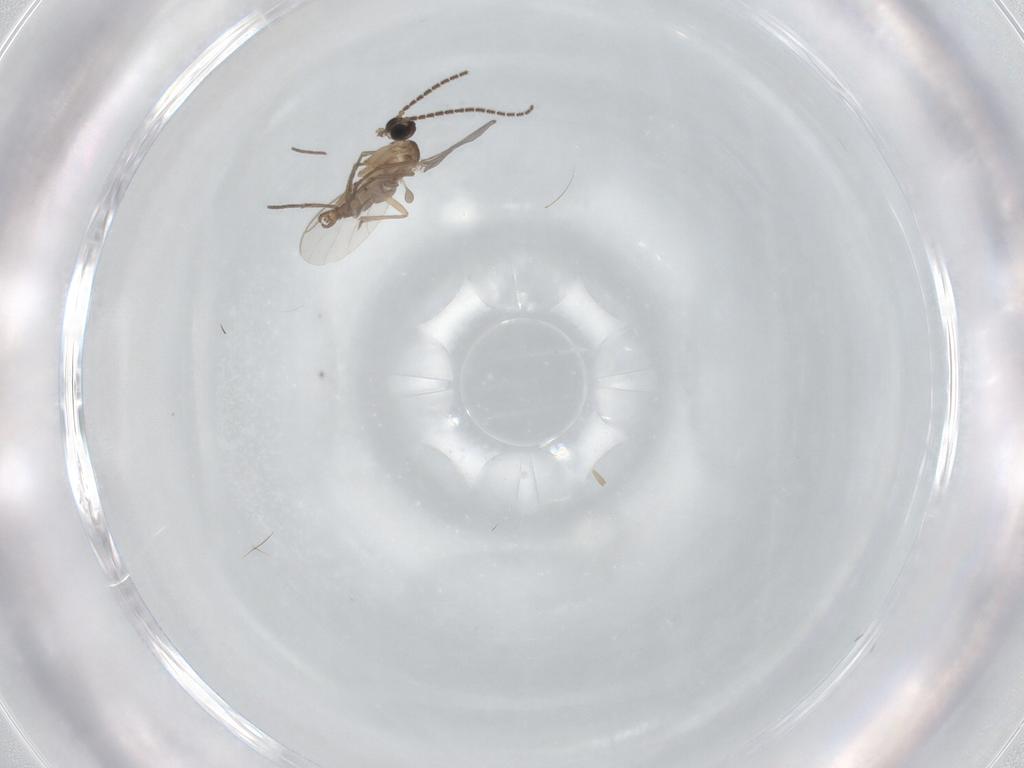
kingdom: Animalia
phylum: Arthropoda
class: Insecta
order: Diptera
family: Sciaridae
